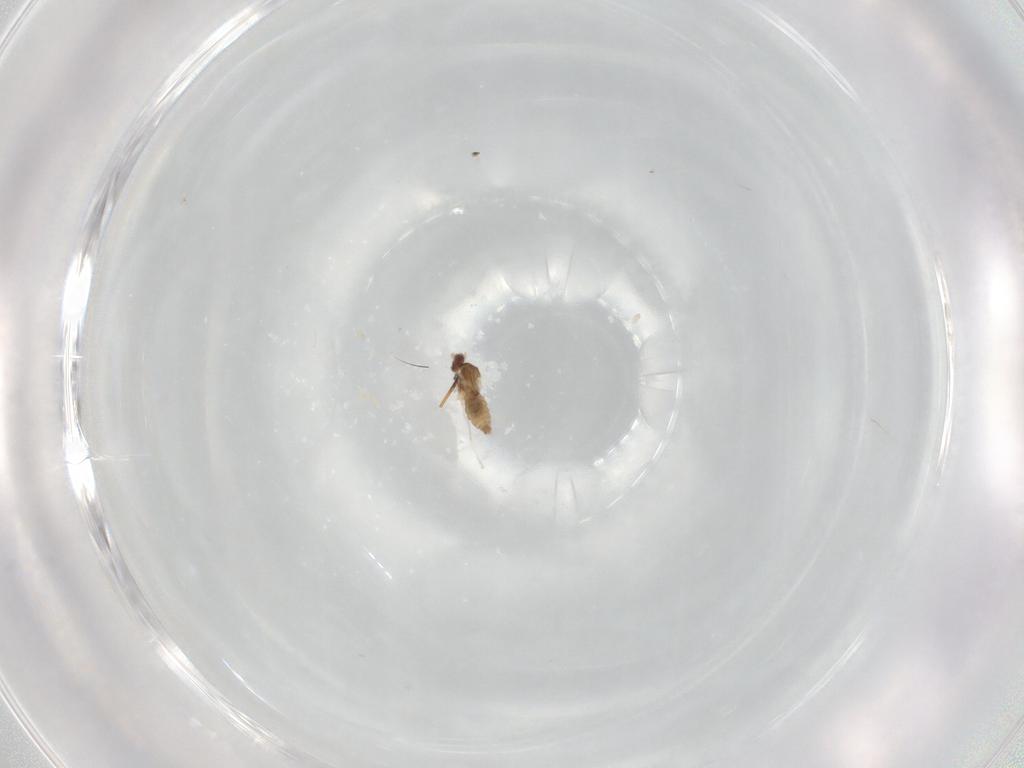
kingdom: Animalia
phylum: Arthropoda
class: Insecta
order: Diptera
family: Cecidomyiidae
